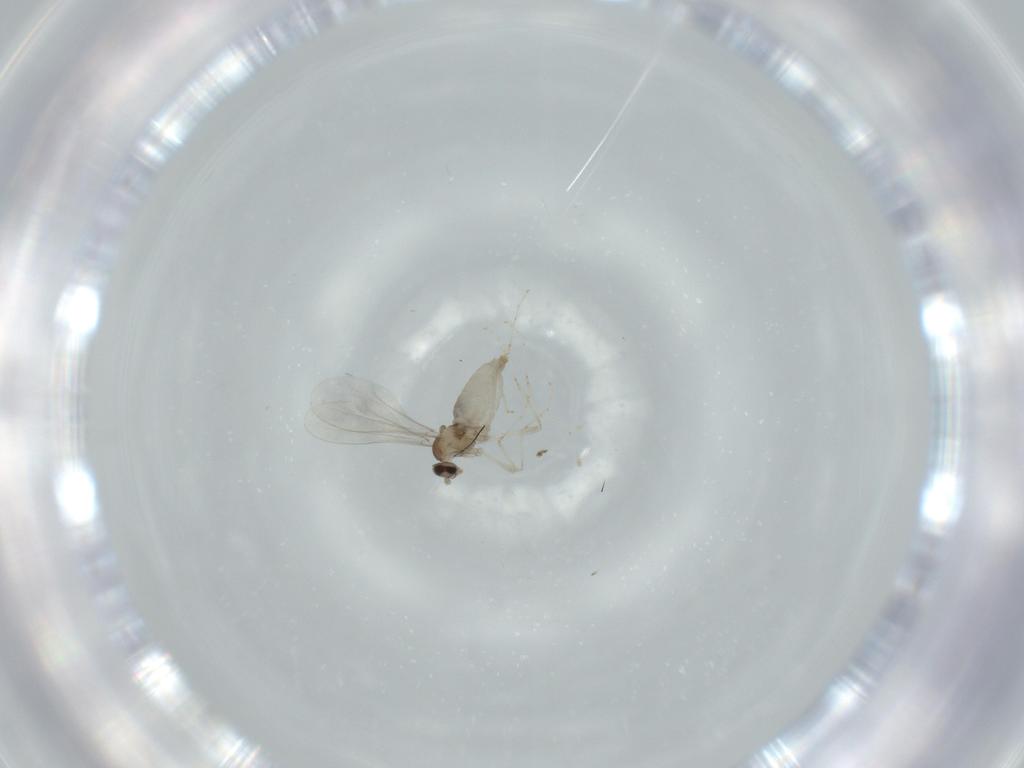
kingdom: Animalia
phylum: Arthropoda
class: Insecta
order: Diptera
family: Cecidomyiidae
